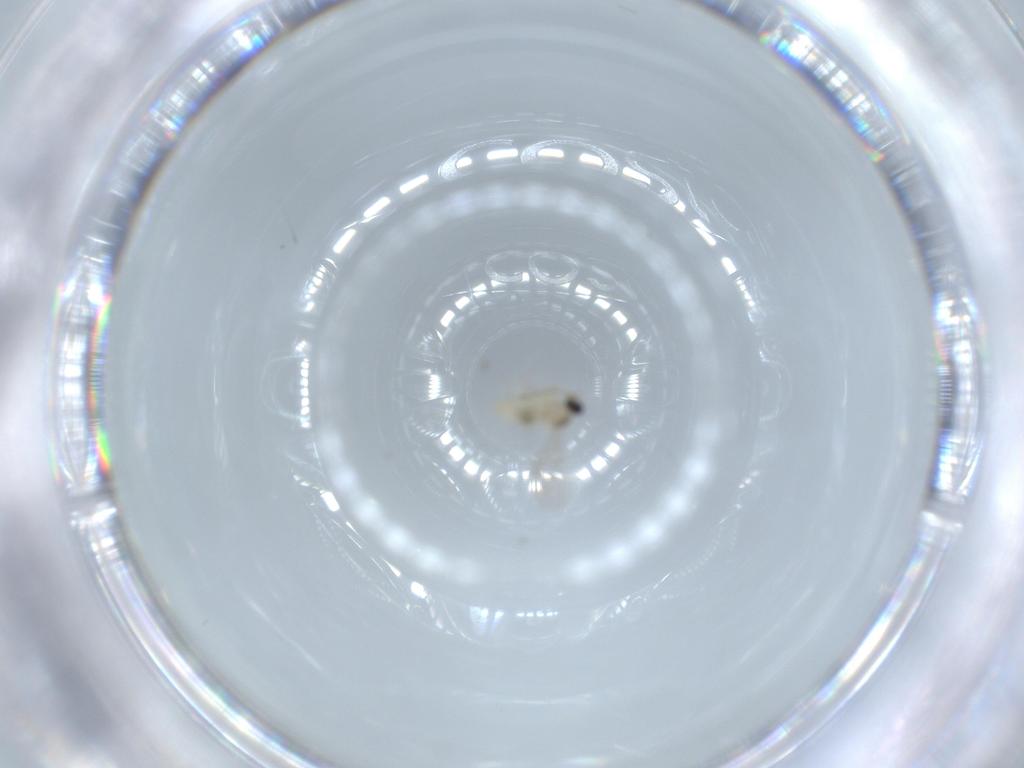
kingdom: Animalia
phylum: Arthropoda
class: Insecta
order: Diptera
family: Cecidomyiidae
